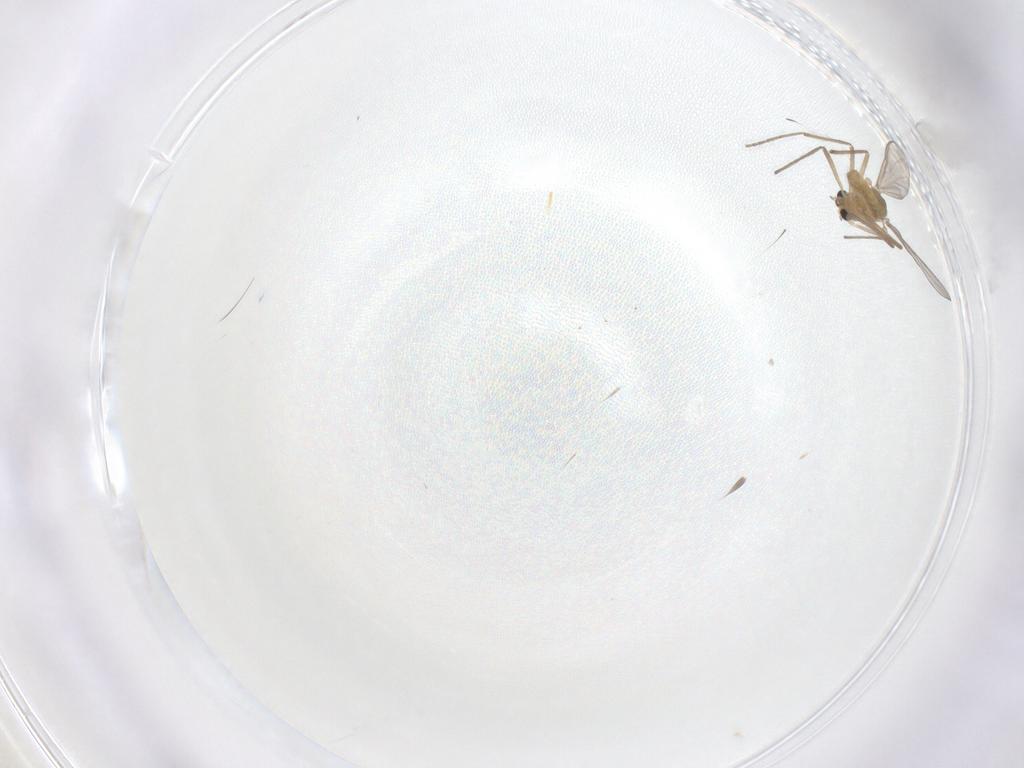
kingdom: Animalia
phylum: Arthropoda
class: Insecta
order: Diptera
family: Chironomidae
